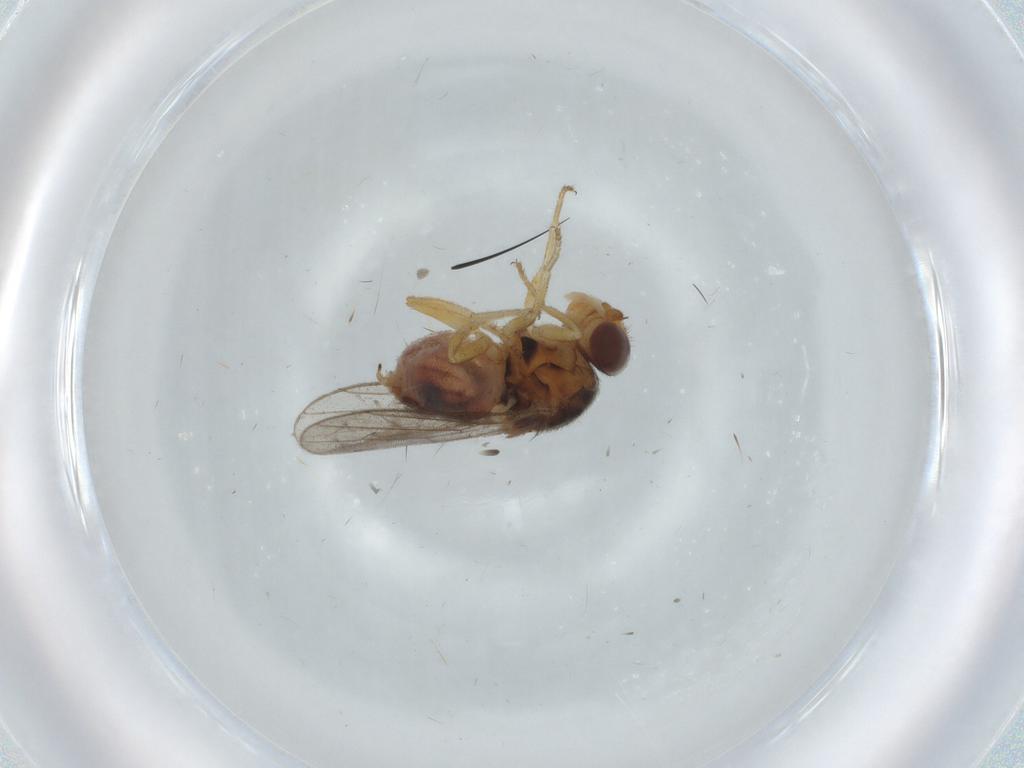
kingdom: Animalia
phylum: Arthropoda
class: Insecta
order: Diptera
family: Chloropidae
